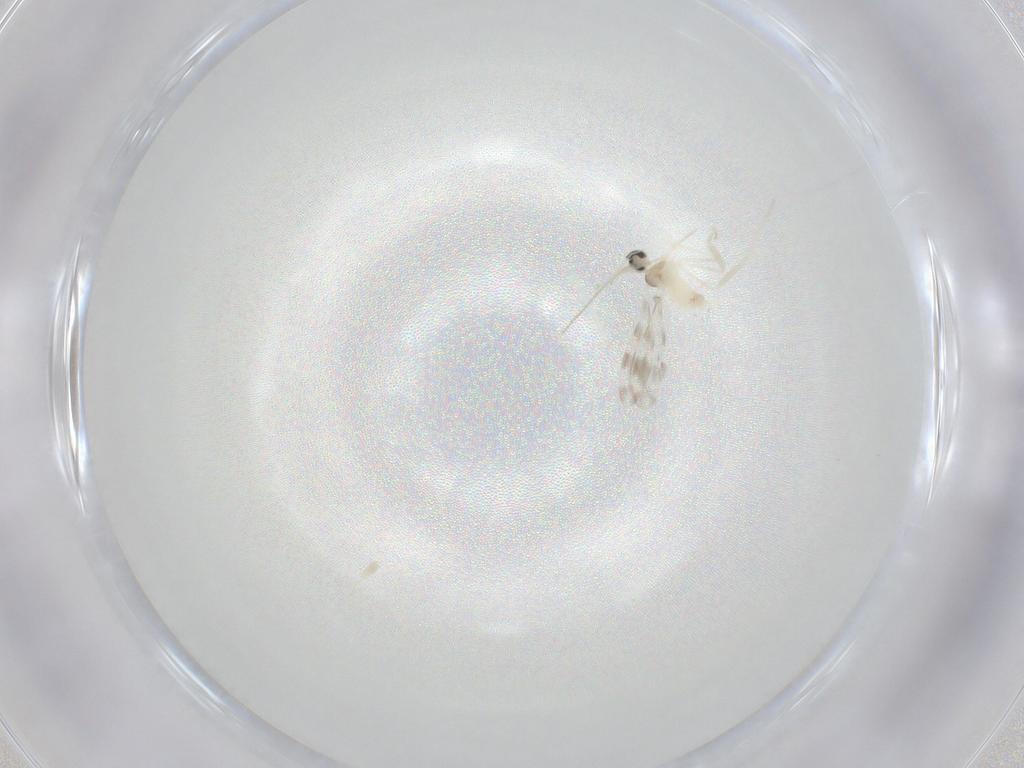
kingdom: Animalia
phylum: Arthropoda
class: Insecta
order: Diptera
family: Cecidomyiidae
